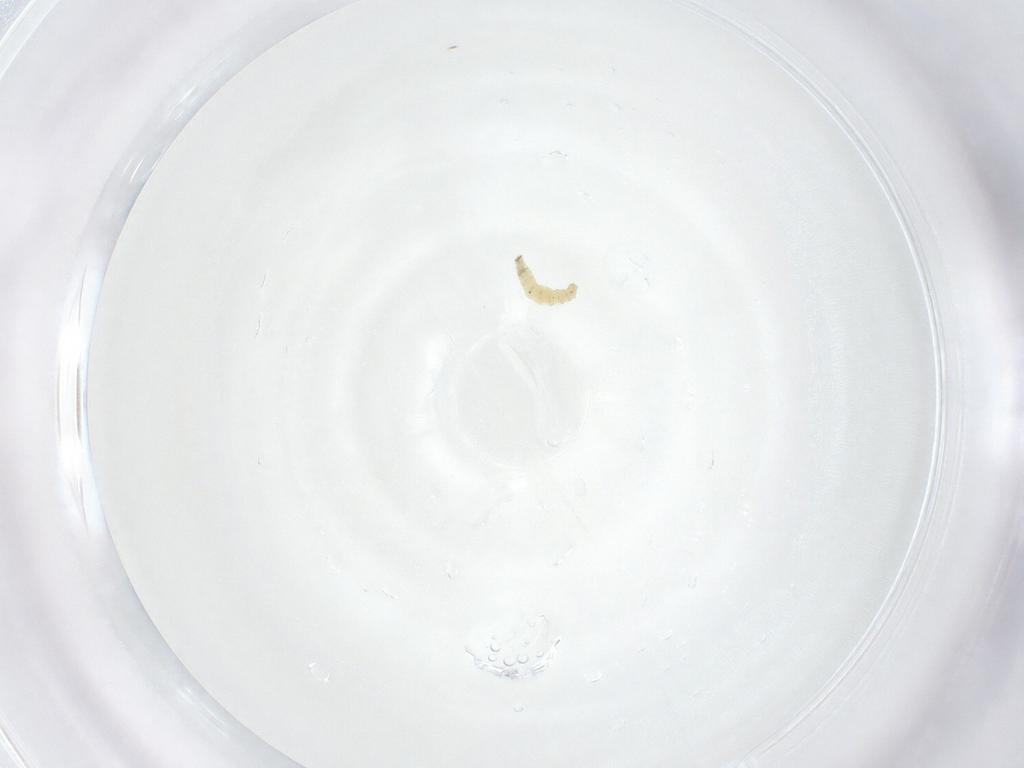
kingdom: Animalia
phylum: Arthropoda
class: Insecta
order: Diptera
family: Sarcophagidae
